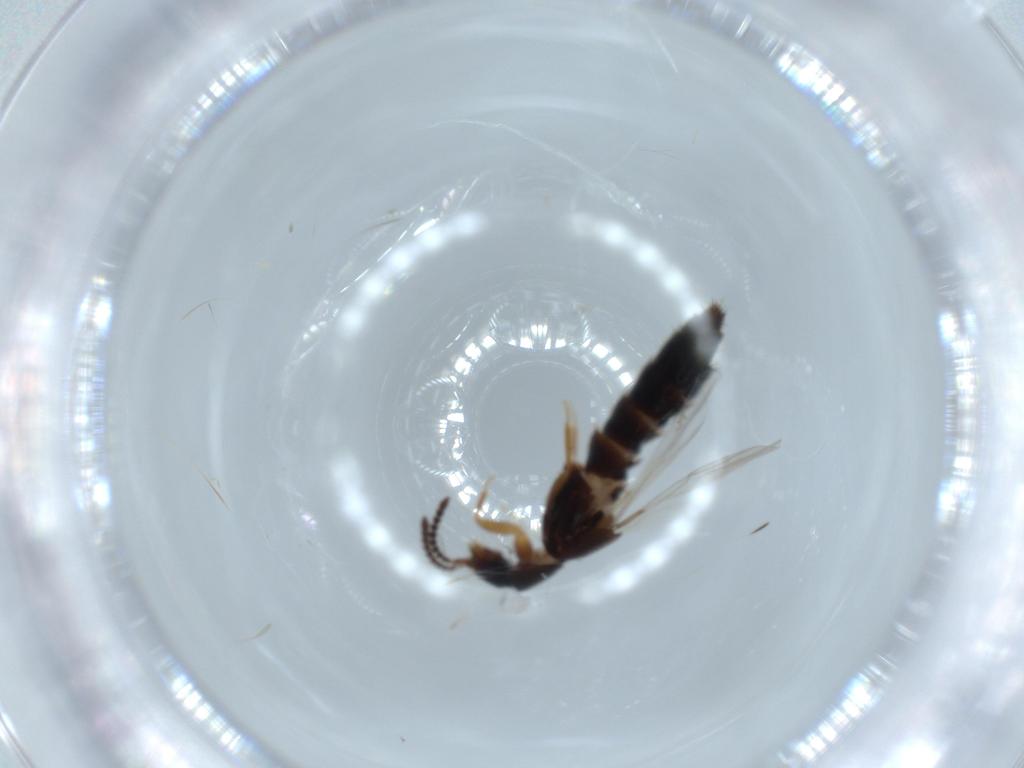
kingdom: Animalia
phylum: Arthropoda
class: Insecta
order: Coleoptera
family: Staphylinidae
